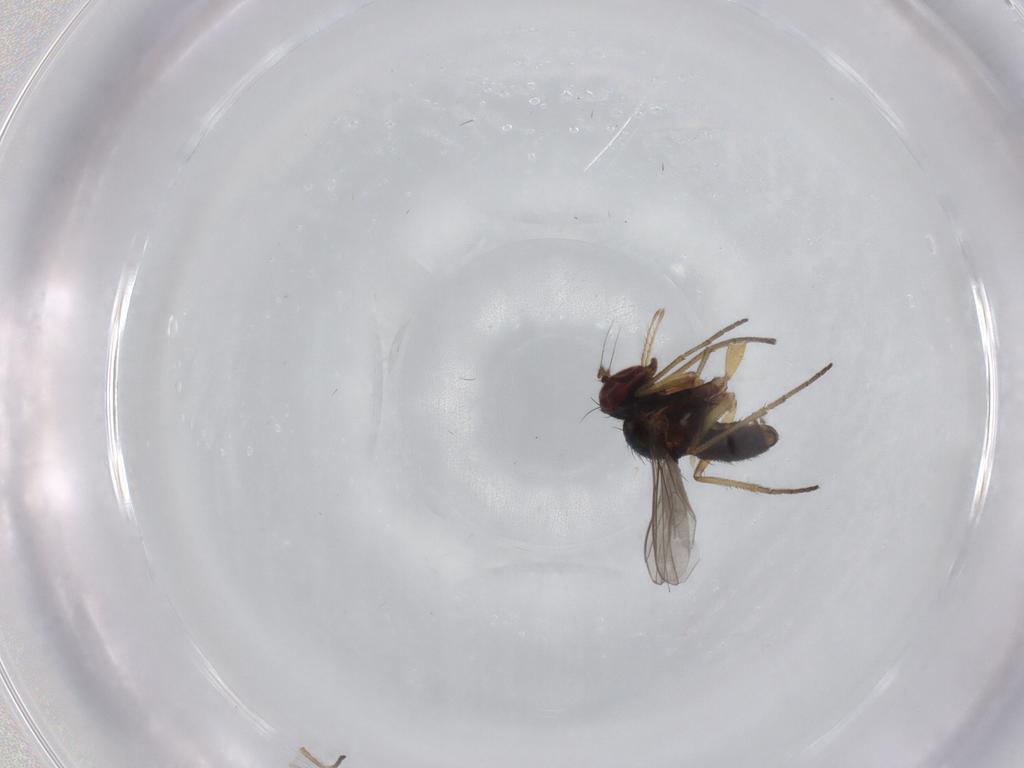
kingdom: Animalia
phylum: Arthropoda
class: Insecta
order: Diptera
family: Dolichopodidae
